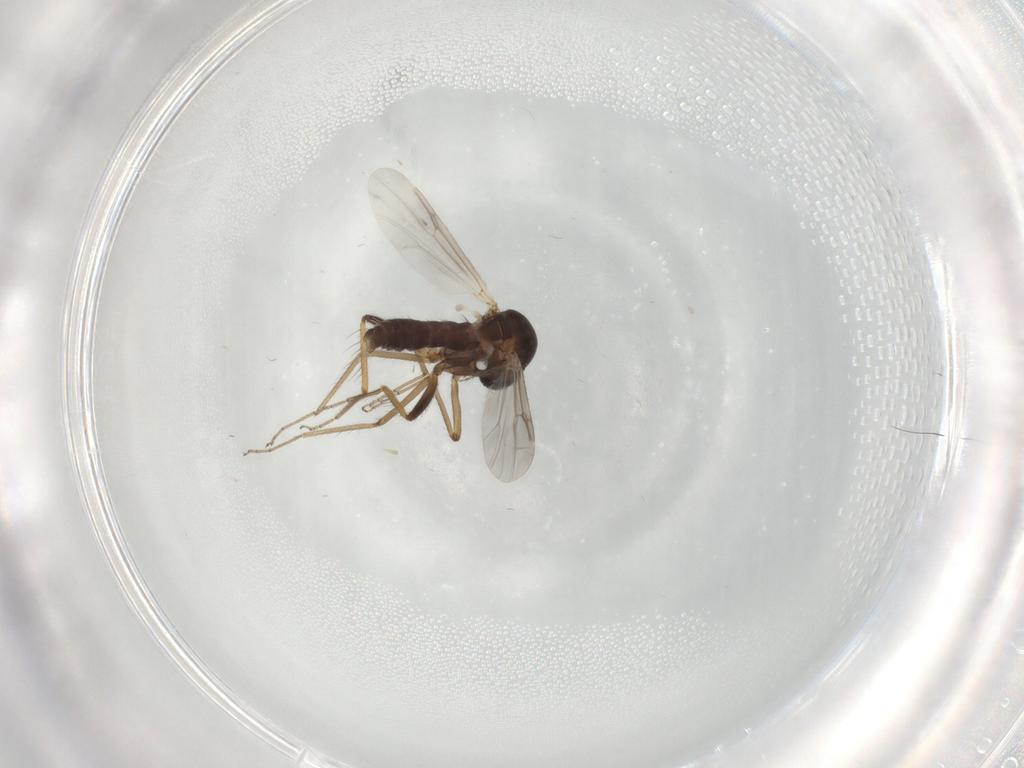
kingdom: Animalia
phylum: Arthropoda
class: Insecta
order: Diptera
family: Ceratopogonidae
